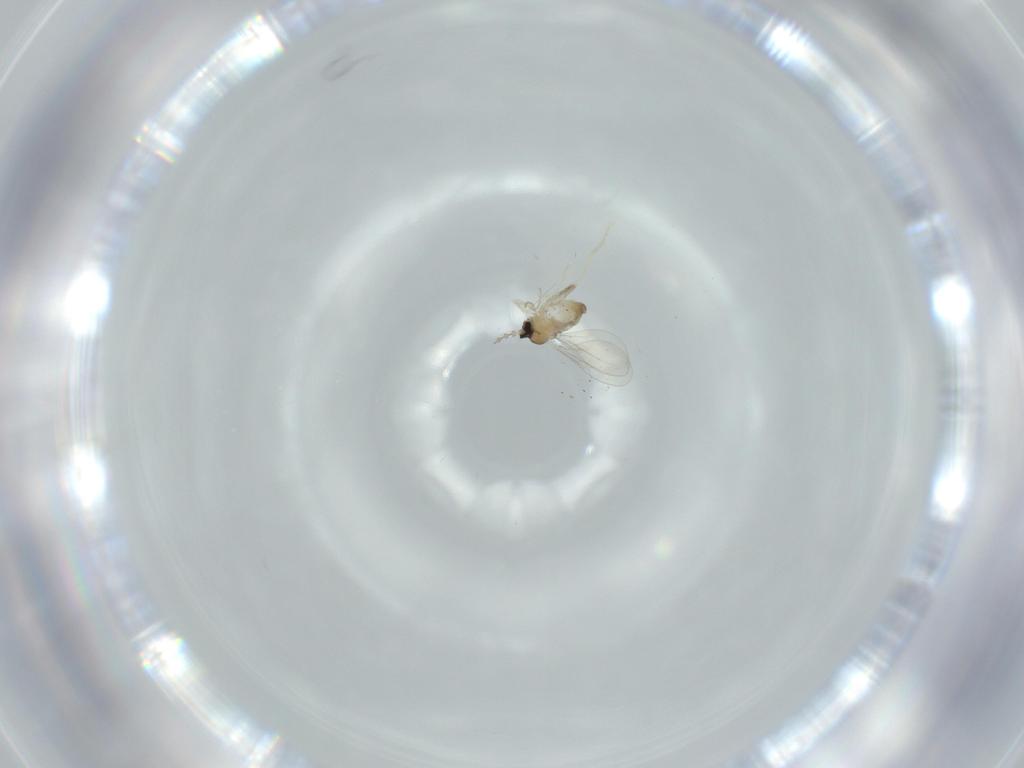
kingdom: Animalia
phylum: Arthropoda
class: Insecta
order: Diptera
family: Cecidomyiidae
